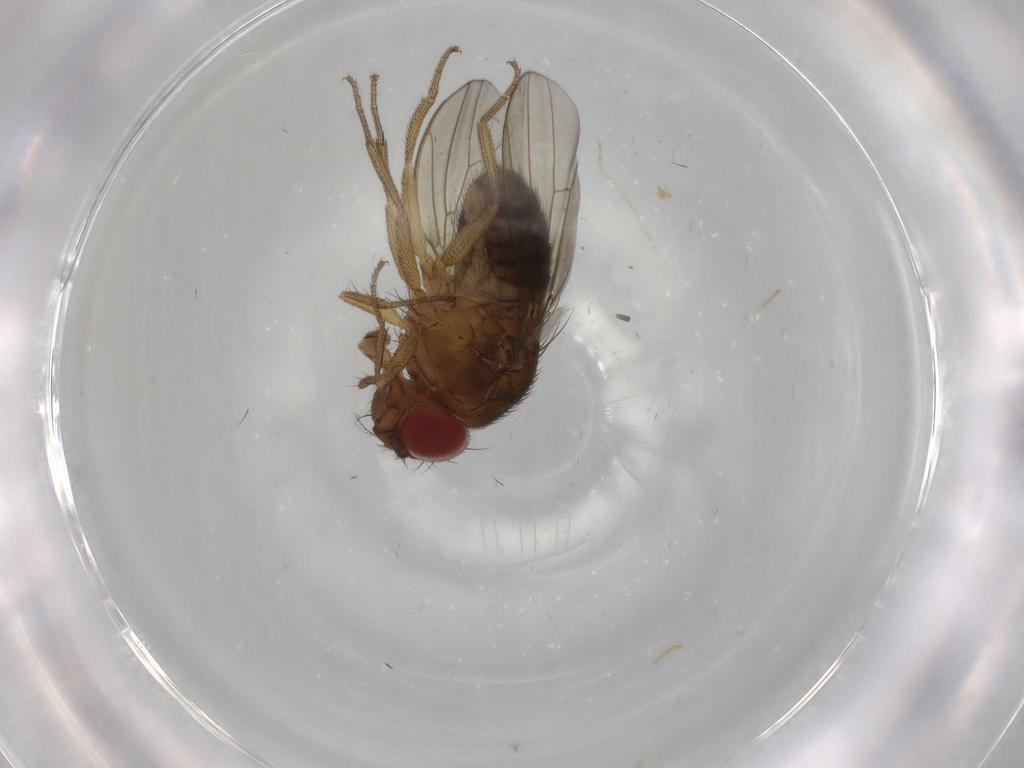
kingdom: Animalia
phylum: Arthropoda
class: Insecta
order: Diptera
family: Drosophilidae
